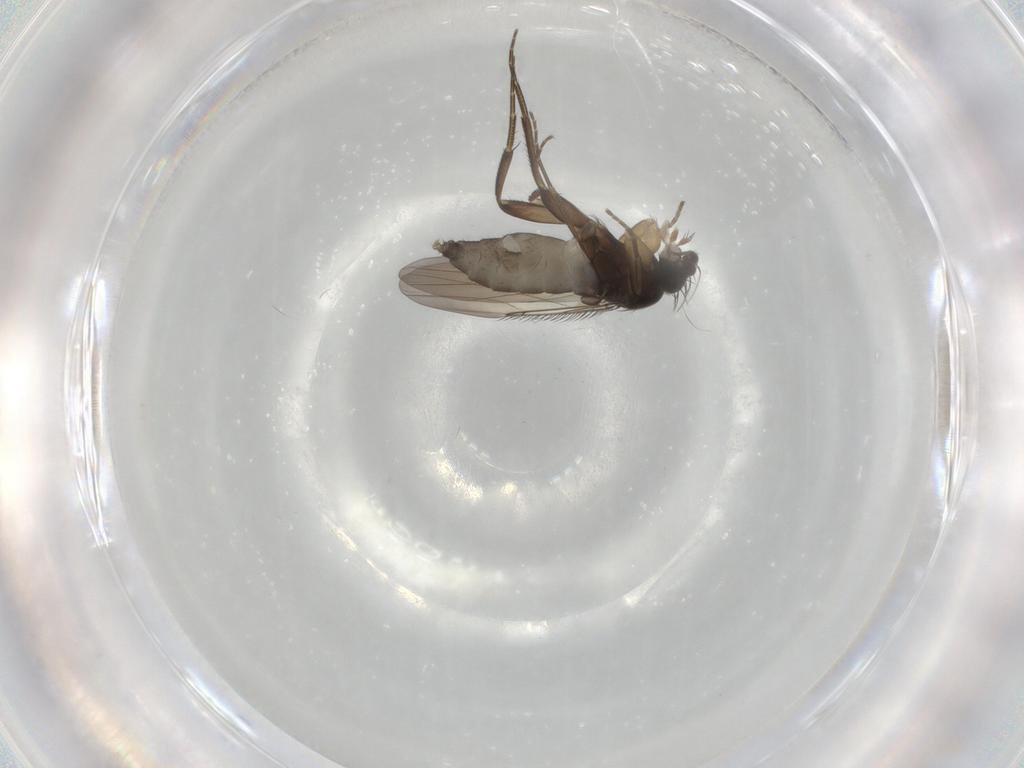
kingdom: Animalia
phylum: Arthropoda
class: Insecta
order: Diptera
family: Phoridae
